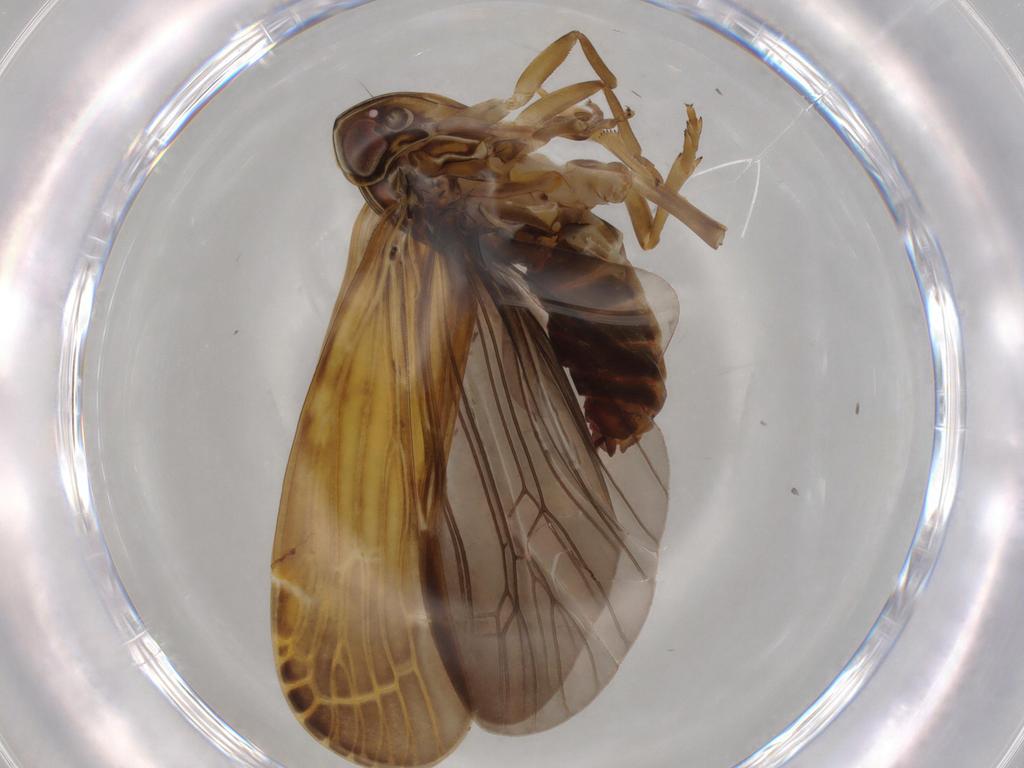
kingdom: Animalia
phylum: Arthropoda
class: Insecta
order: Hemiptera
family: Achilidae
